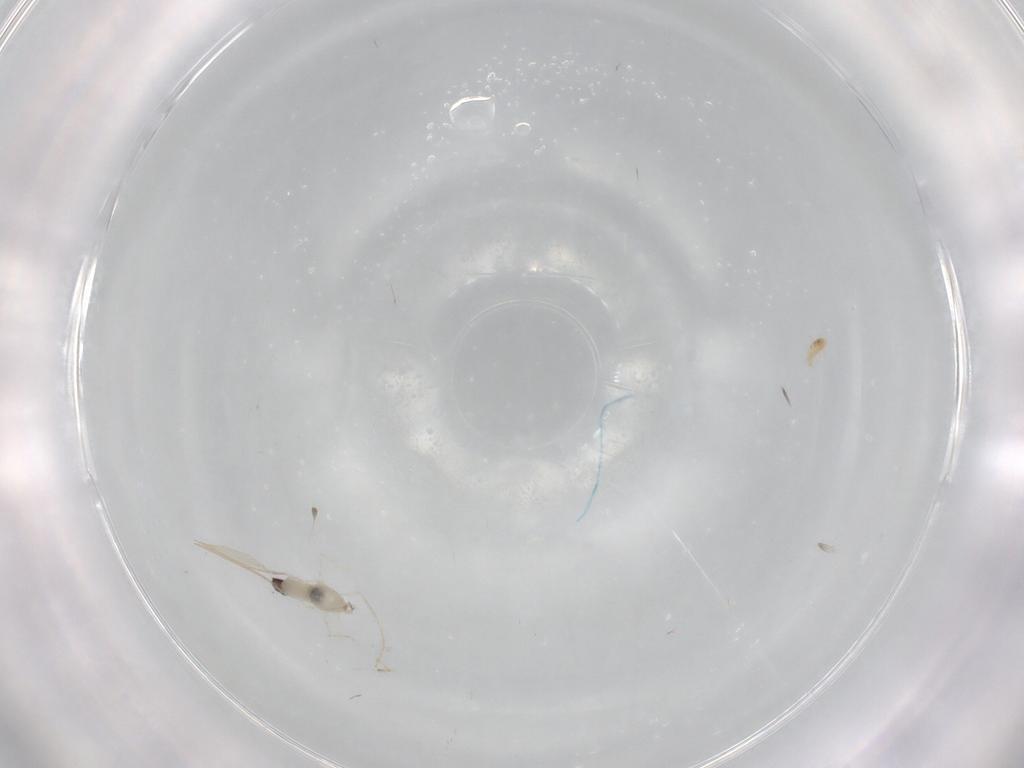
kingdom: Animalia
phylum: Arthropoda
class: Insecta
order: Diptera
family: Phoridae
